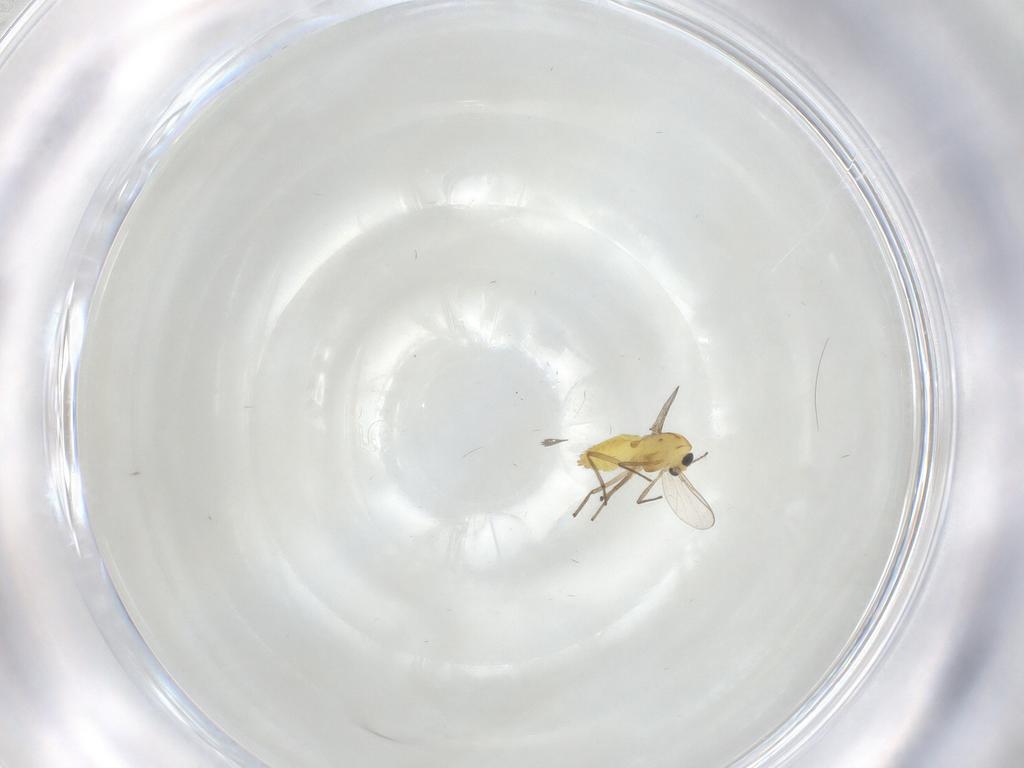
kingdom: Animalia
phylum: Arthropoda
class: Insecta
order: Diptera
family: Chironomidae
